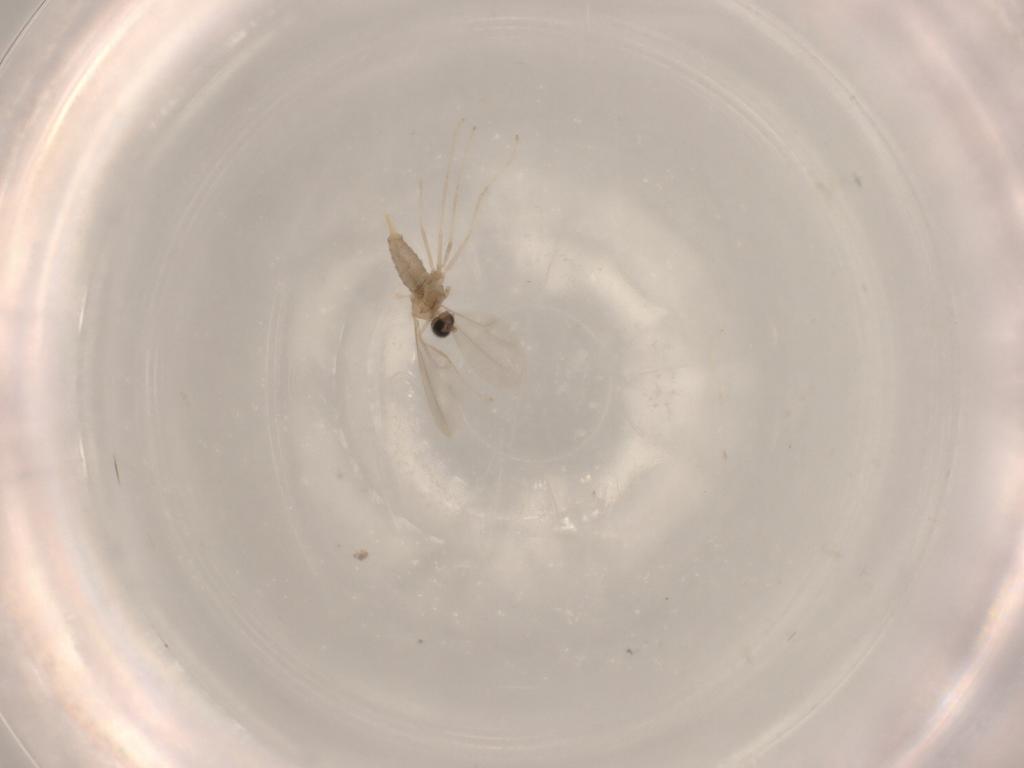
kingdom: Animalia
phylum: Arthropoda
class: Insecta
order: Diptera
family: Cecidomyiidae
